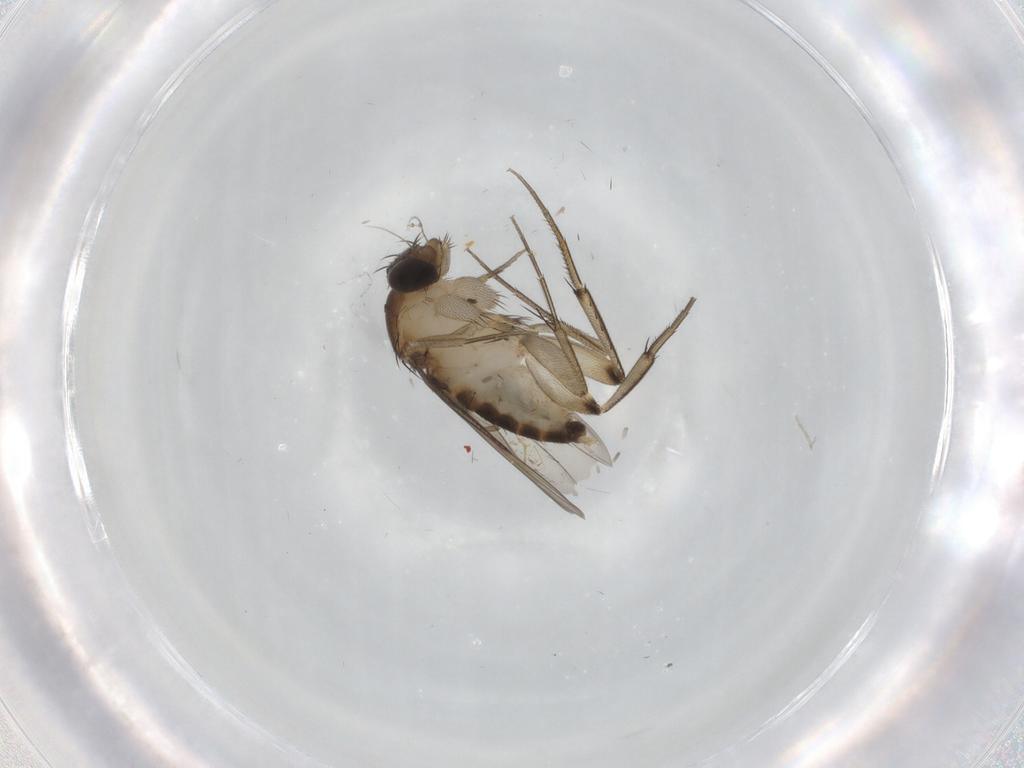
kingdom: Animalia
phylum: Arthropoda
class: Insecta
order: Diptera
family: Phoridae
